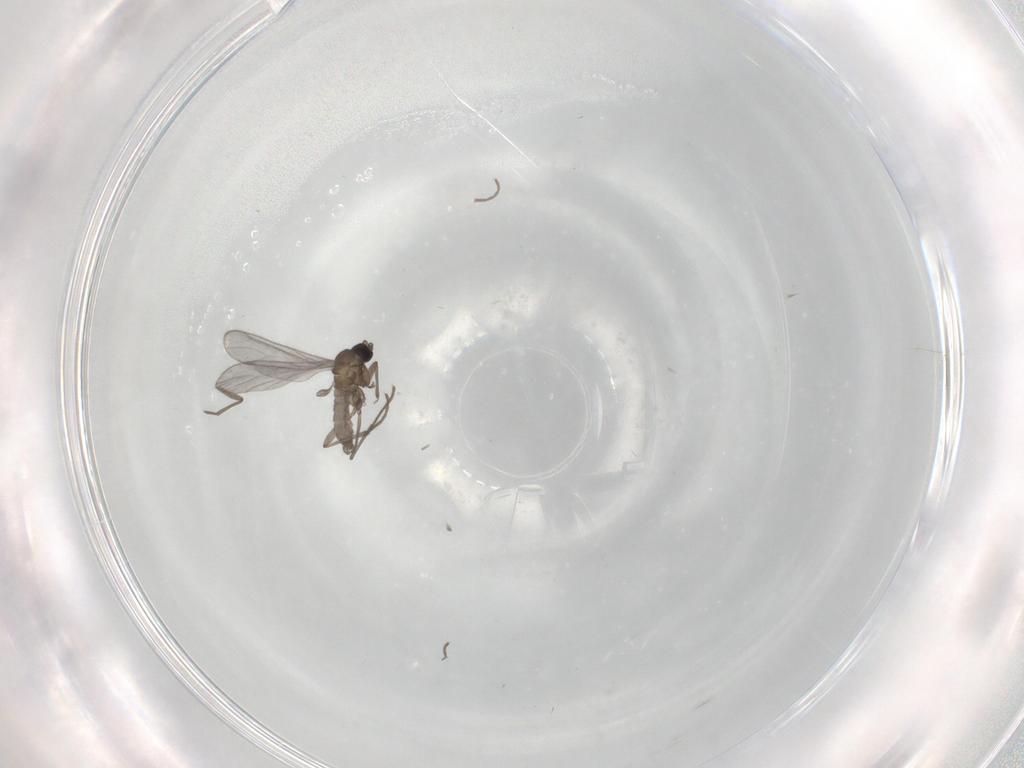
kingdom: Animalia
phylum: Arthropoda
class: Insecta
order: Diptera
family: Sciaridae
